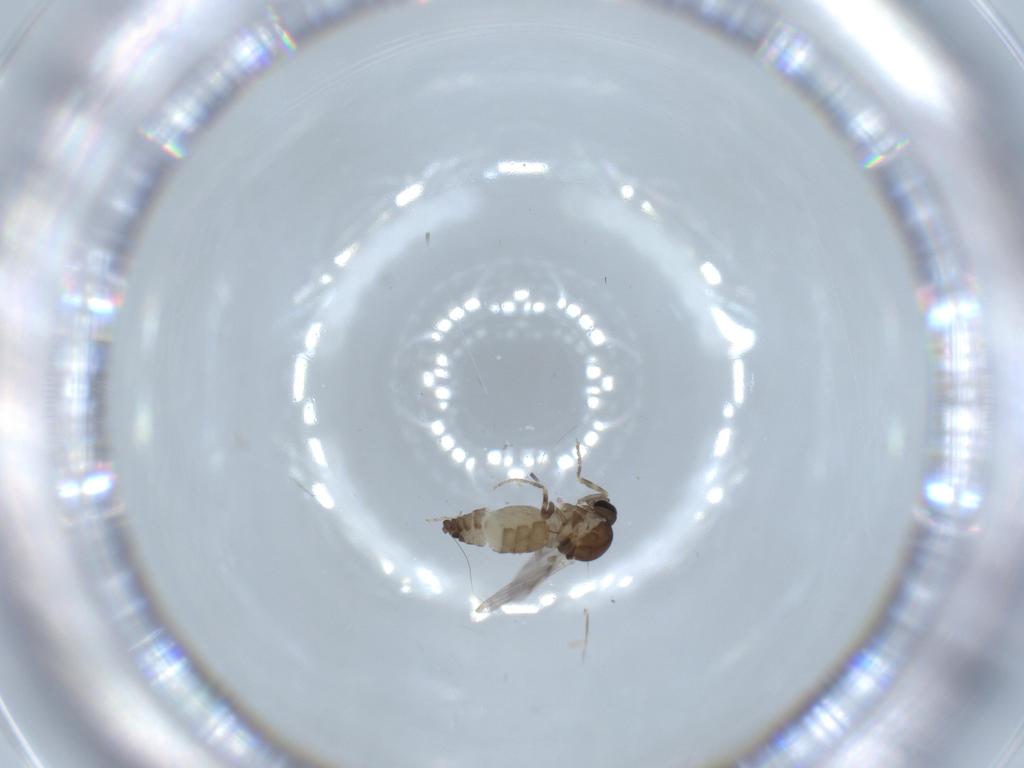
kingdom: Animalia
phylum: Arthropoda
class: Insecta
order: Diptera
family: Ceratopogonidae
